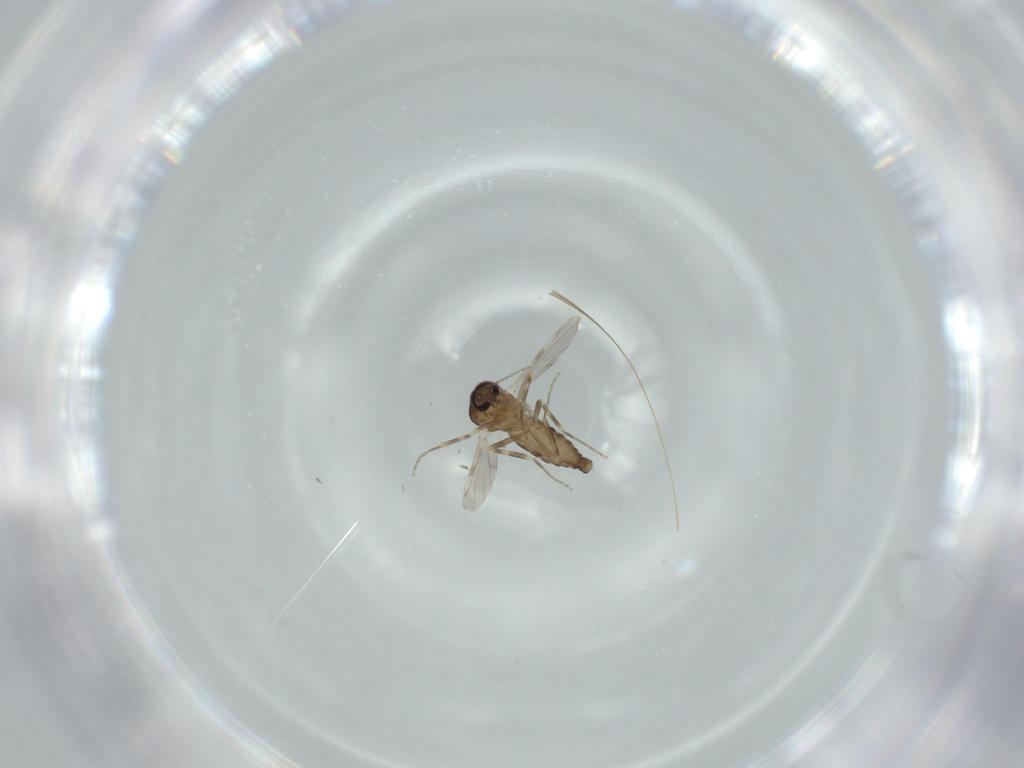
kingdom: Animalia
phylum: Arthropoda
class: Insecta
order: Diptera
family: Ceratopogonidae
